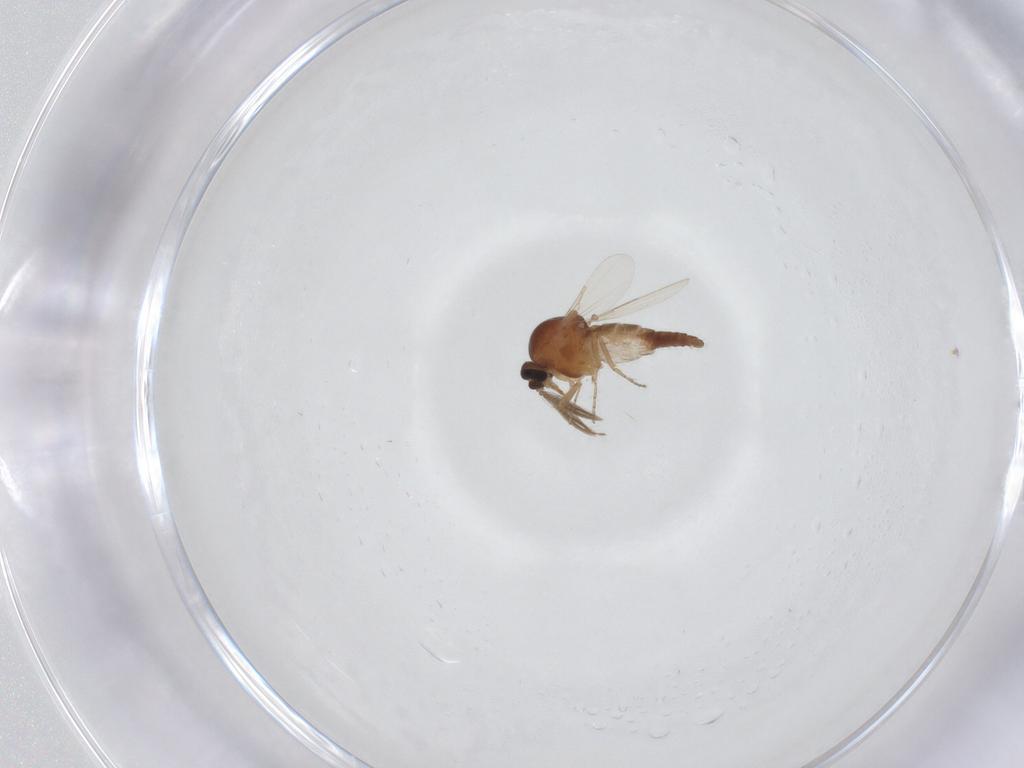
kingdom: Animalia
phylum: Arthropoda
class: Insecta
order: Diptera
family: Ceratopogonidae
